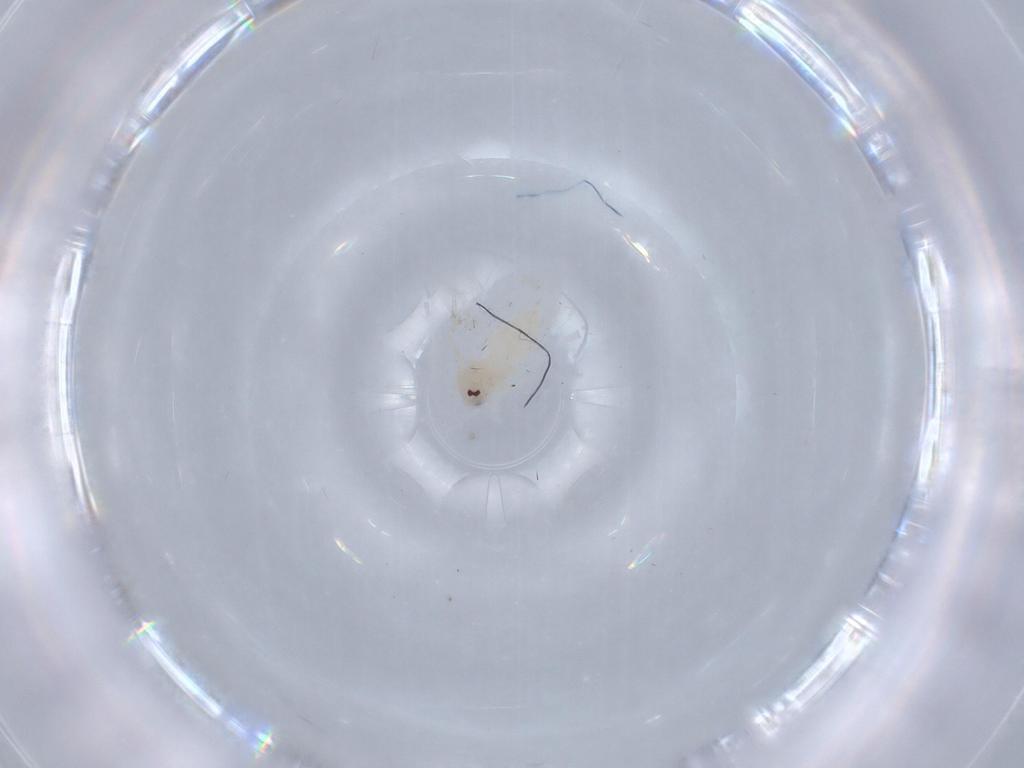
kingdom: Animalia
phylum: Arthropoda
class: Insecta
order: Hemiptera
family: Aleyrodidae
